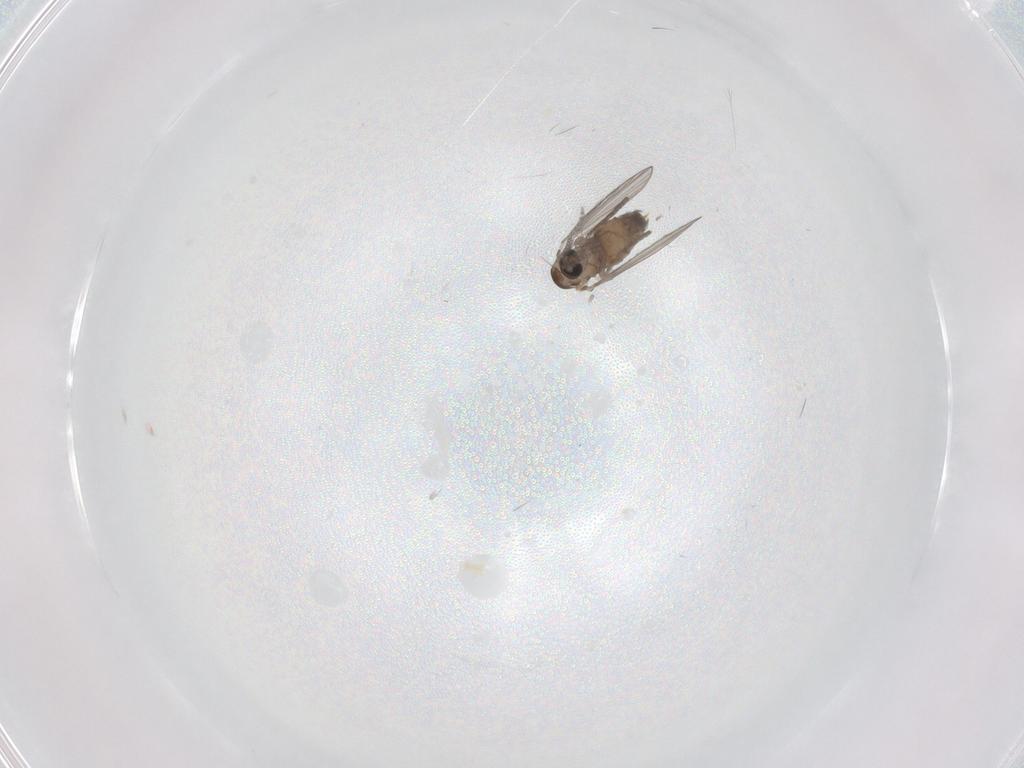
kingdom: Animalia
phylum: Arthropoda
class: Insecta
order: Diptera
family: Psychodidae
